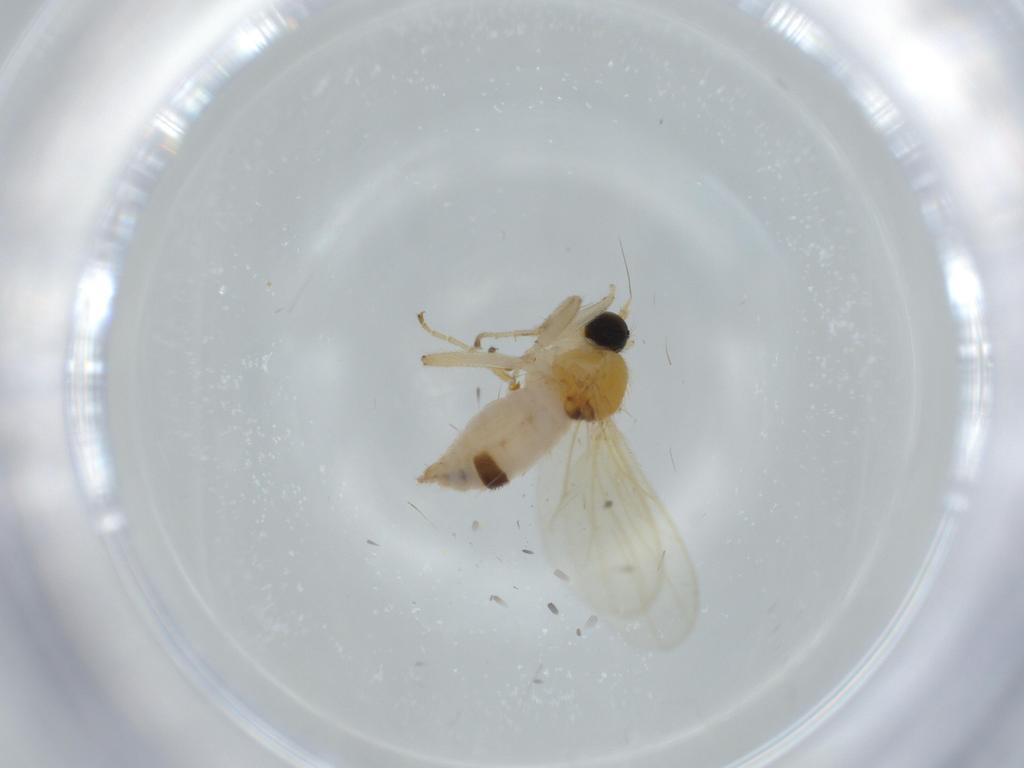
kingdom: Animalia
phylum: Arthropoda
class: Insecta
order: Diptera
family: Hybotidae
